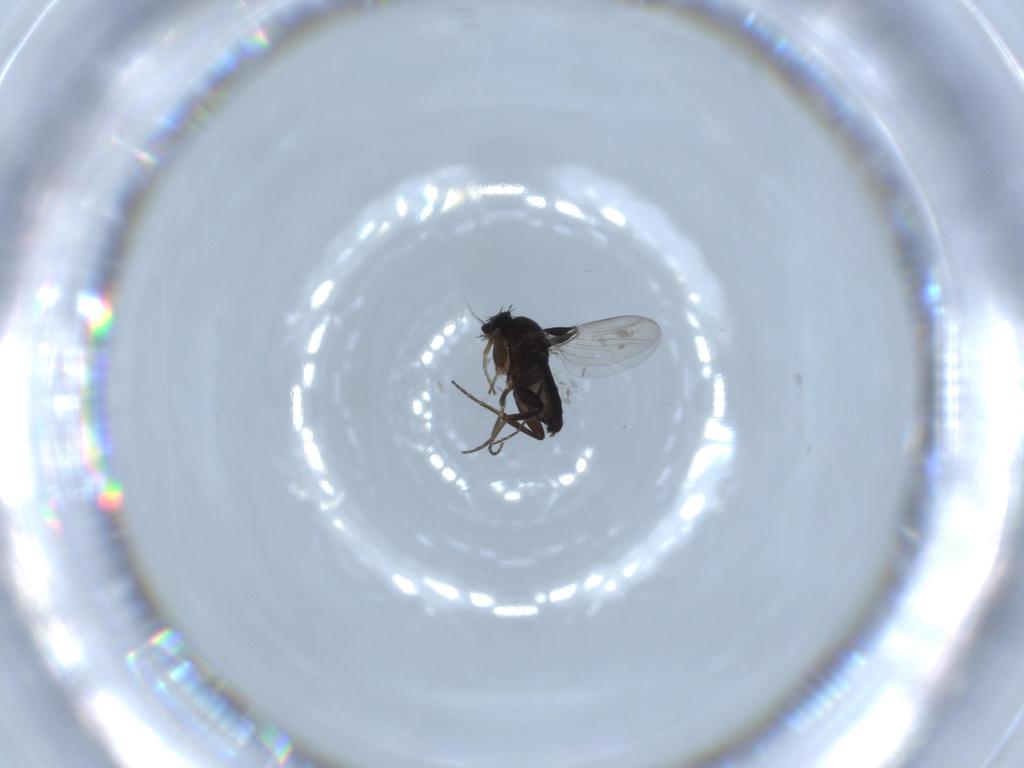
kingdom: Animalia
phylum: Arthropoda
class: Insecta
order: Diptera
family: Phoridae
